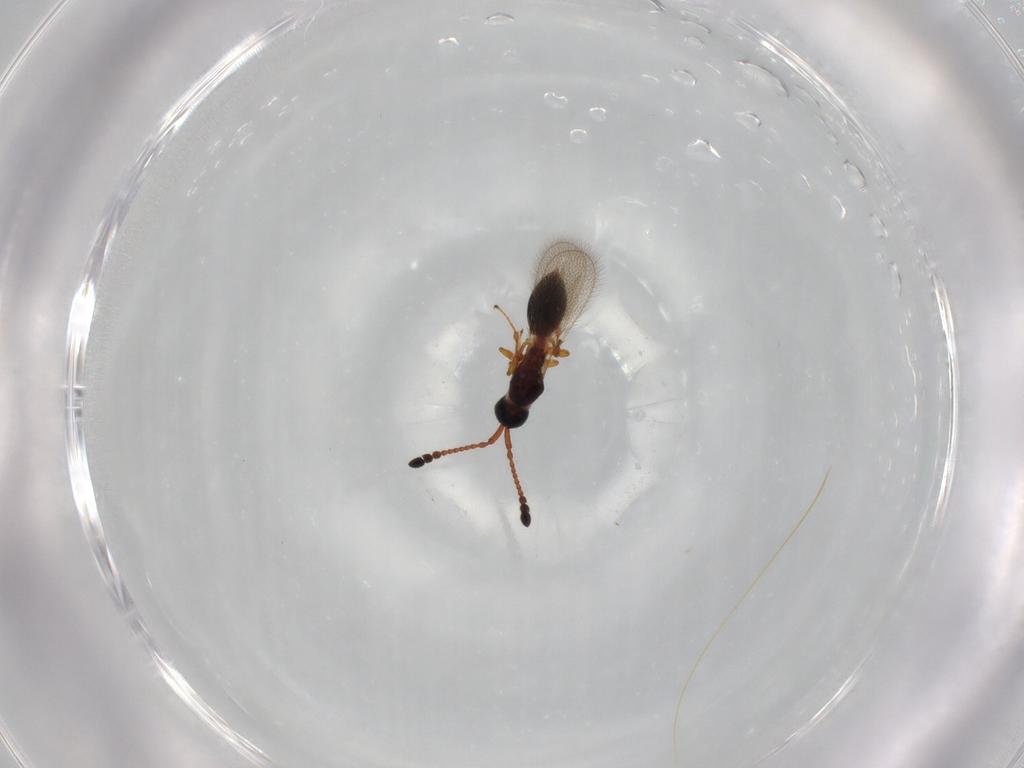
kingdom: Animalia
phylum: Arthropoda
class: Insecta
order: Hymenoptera
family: Diapriidae
